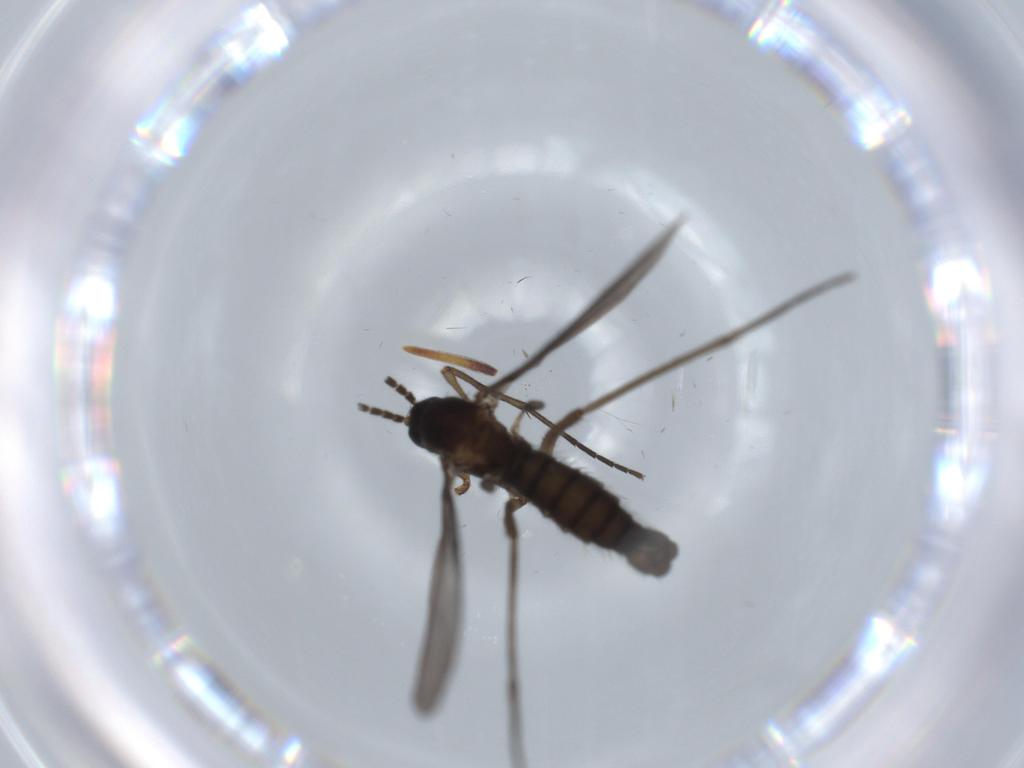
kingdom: Animalia
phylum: Arthropoda
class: Insecta
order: Diptera
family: Sciaridae
